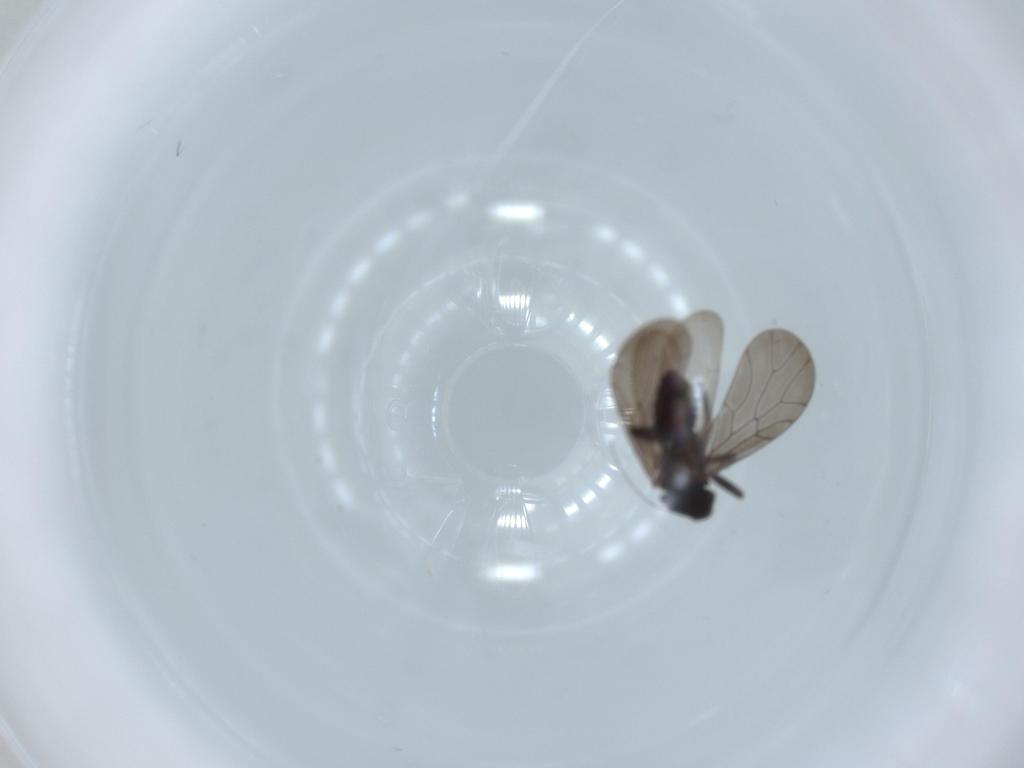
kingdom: Animalia
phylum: Arthropoda
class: Insecta
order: Psocodea
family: Lepidopsocidae
